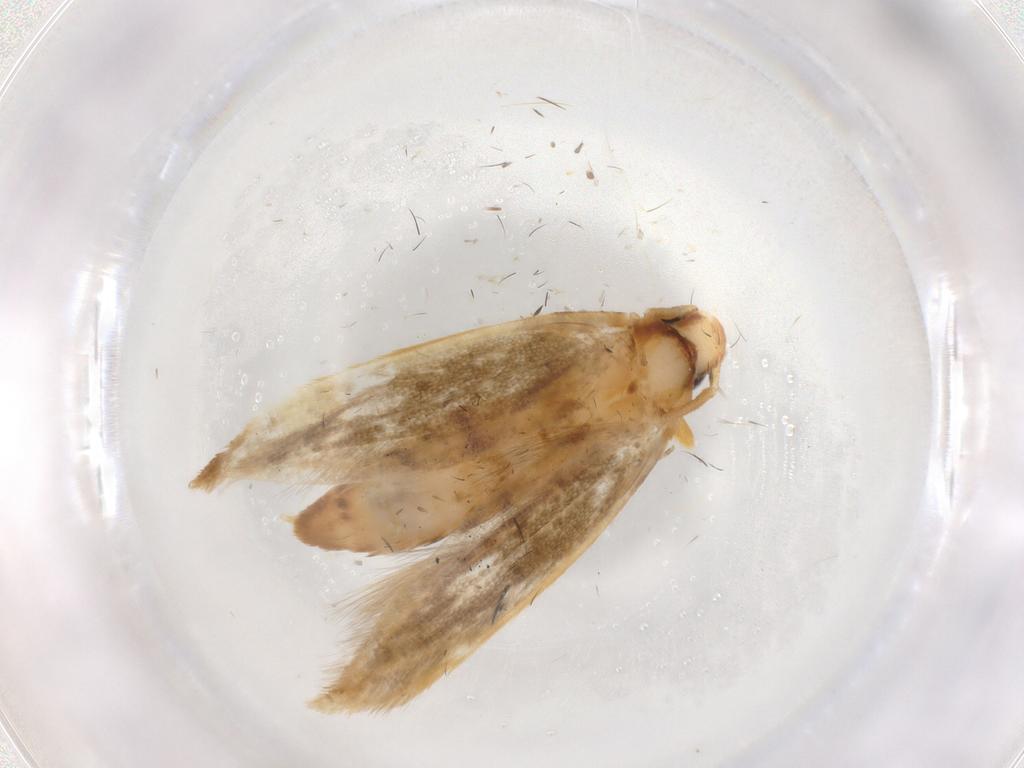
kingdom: Animalia
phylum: Arthropoda
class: Insecta
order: Lepidoptera
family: Tineidae
